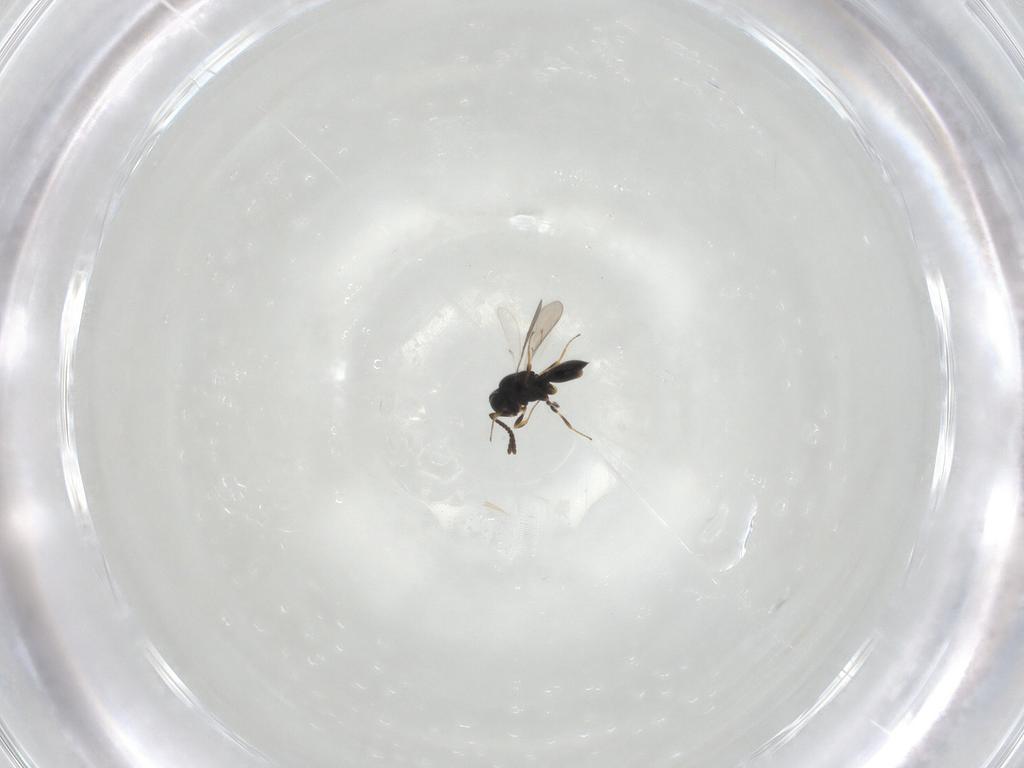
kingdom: Animalia
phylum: Arthropoda
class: Insecta
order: Hymenoptera
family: Scelionidae
